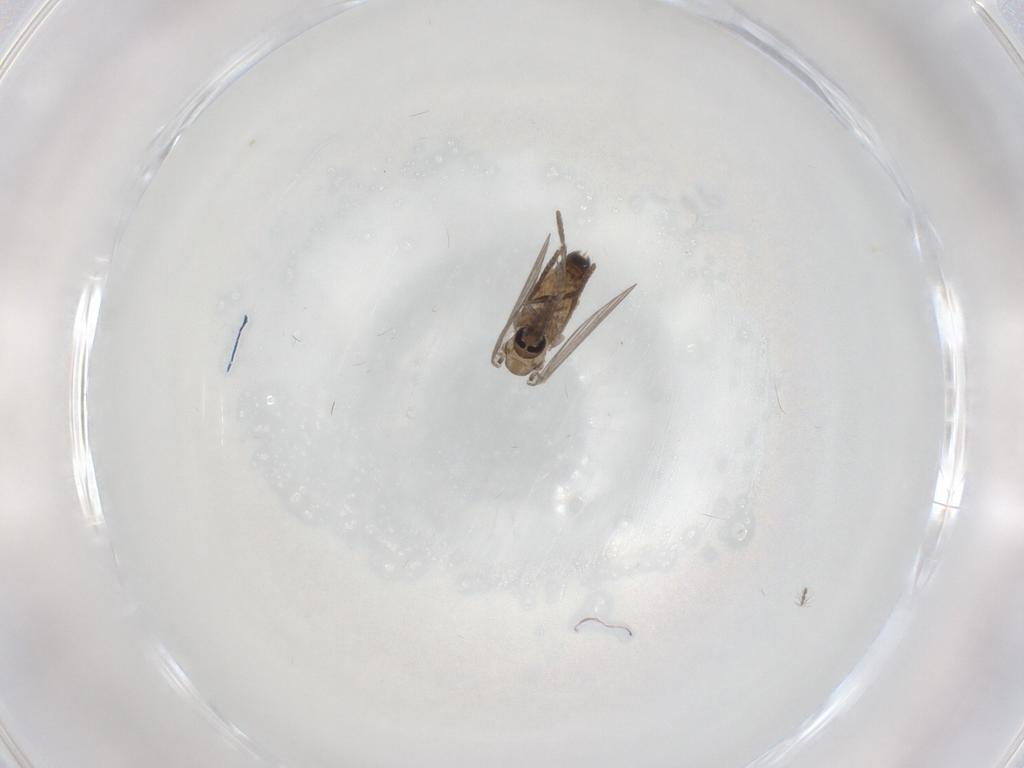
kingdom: Animalia
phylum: Arthropoda
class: Insecta
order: Diptera
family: Psychodidae
